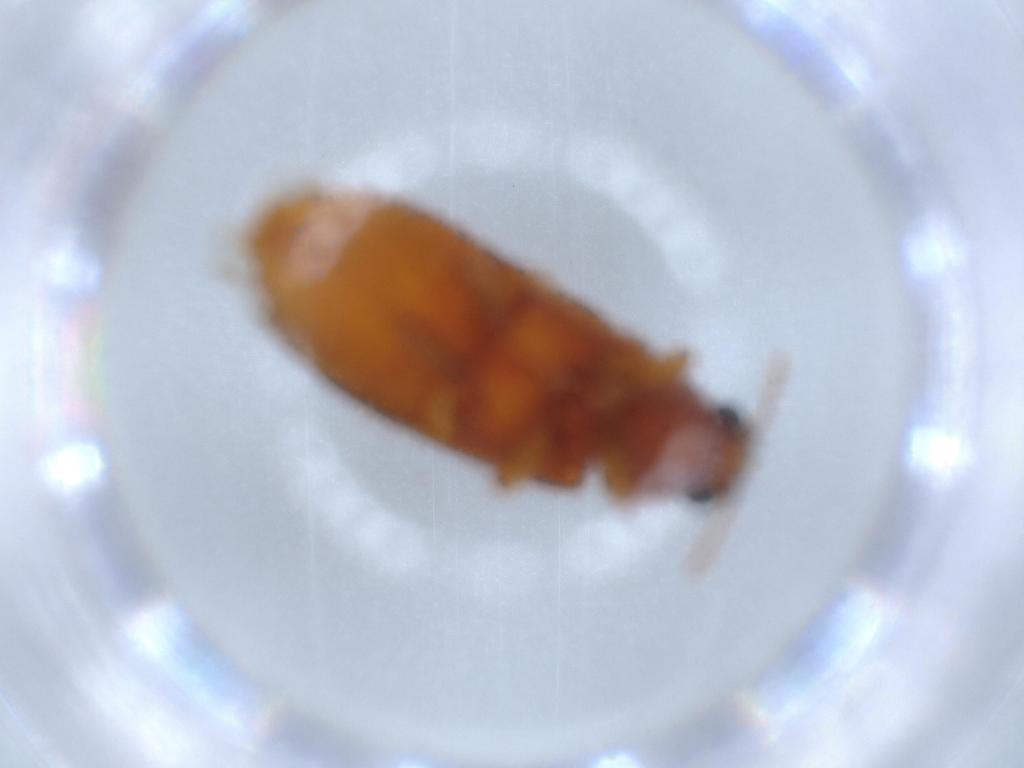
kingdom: Animalia
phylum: Arthropoda
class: Insecta
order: Coleoptera
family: Mycteridae
